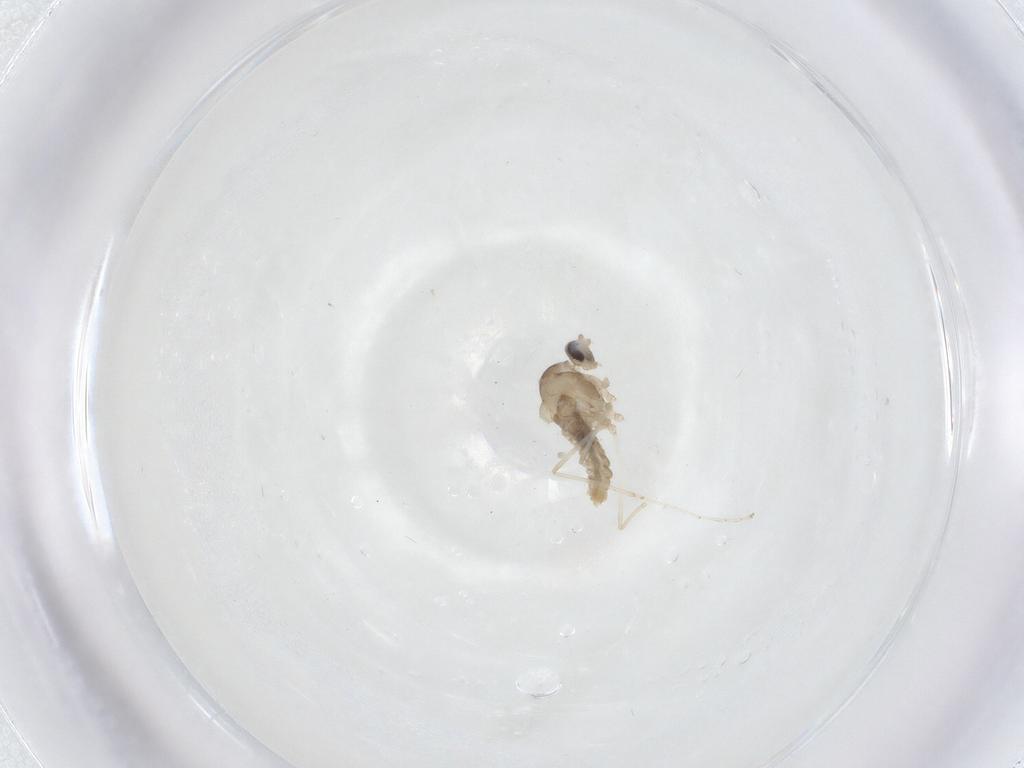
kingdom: Animalia
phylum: Arthropoda
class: Insecta
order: Diptera
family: Cecidomyiidae
